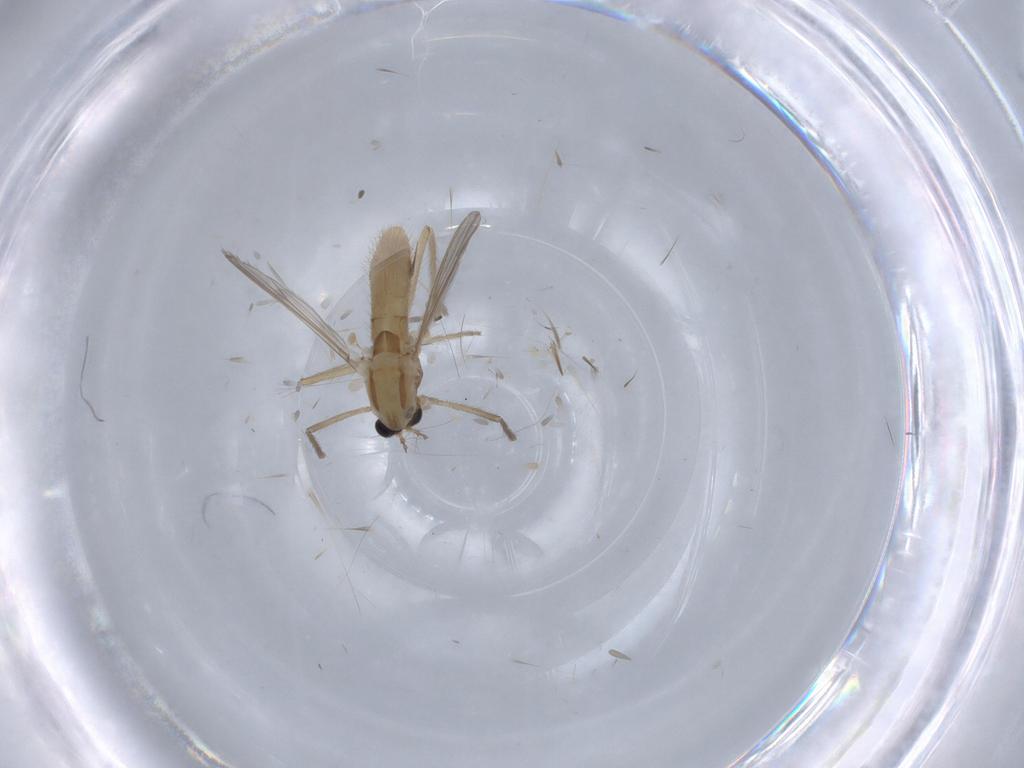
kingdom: Animalia
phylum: Arthropoda
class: Insecta
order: Diptera
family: Chironomidae
